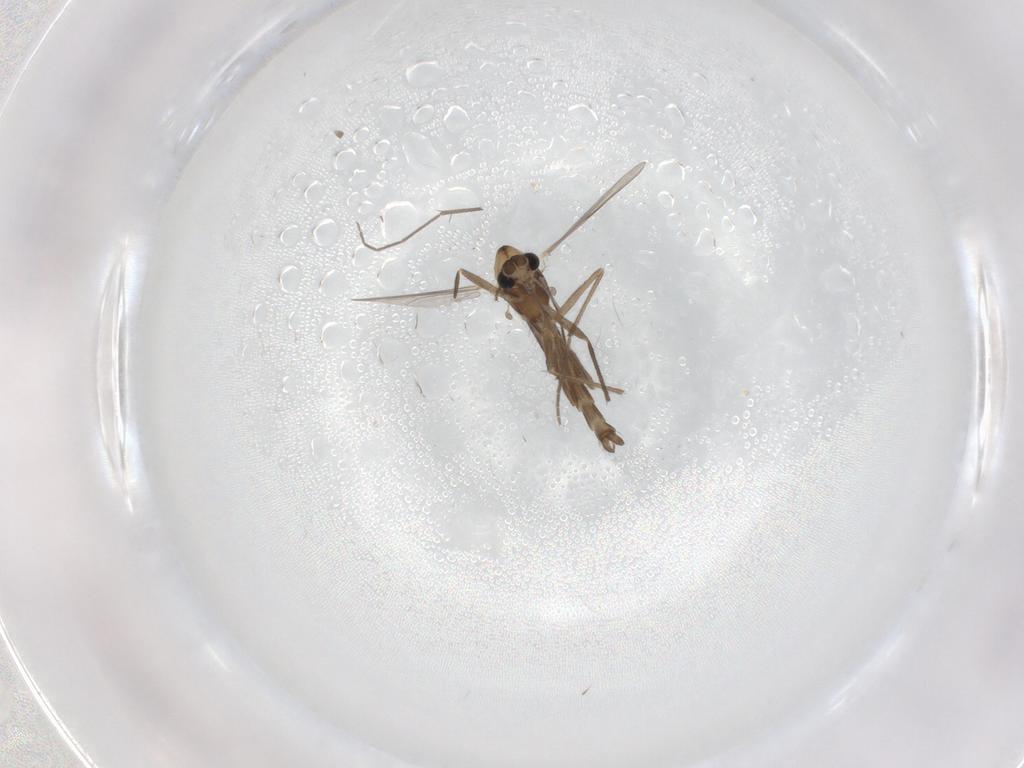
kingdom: Animalia
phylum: Arthropoda
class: Insecta
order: Diptera
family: Chironomidae
